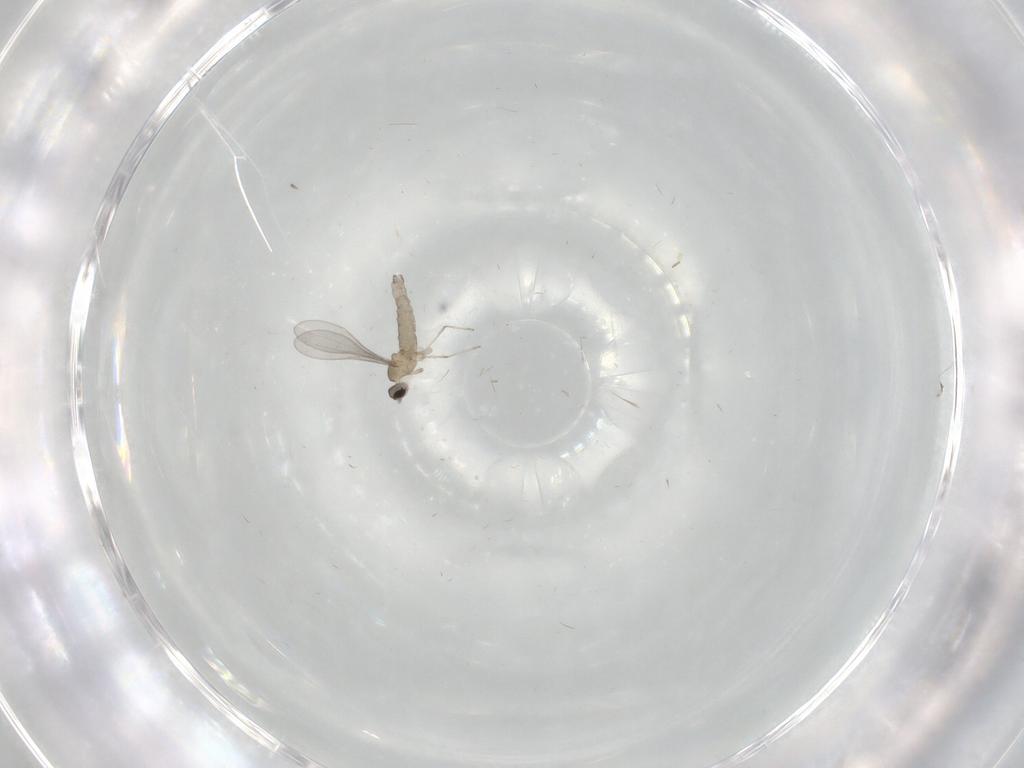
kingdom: Animalia
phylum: Arthropoda
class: Insecta
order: Diptera
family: Cecidomyiidae
